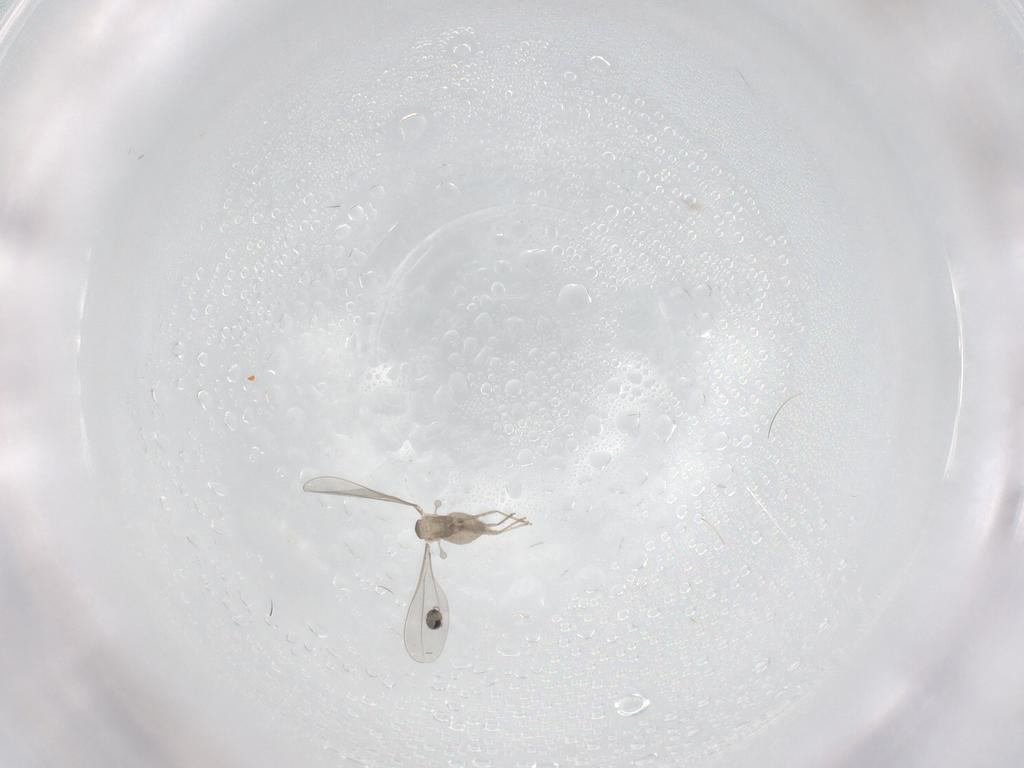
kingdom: Animalia
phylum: Arthropoda
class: Insecta
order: Diptera
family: Cecidomyiidae
